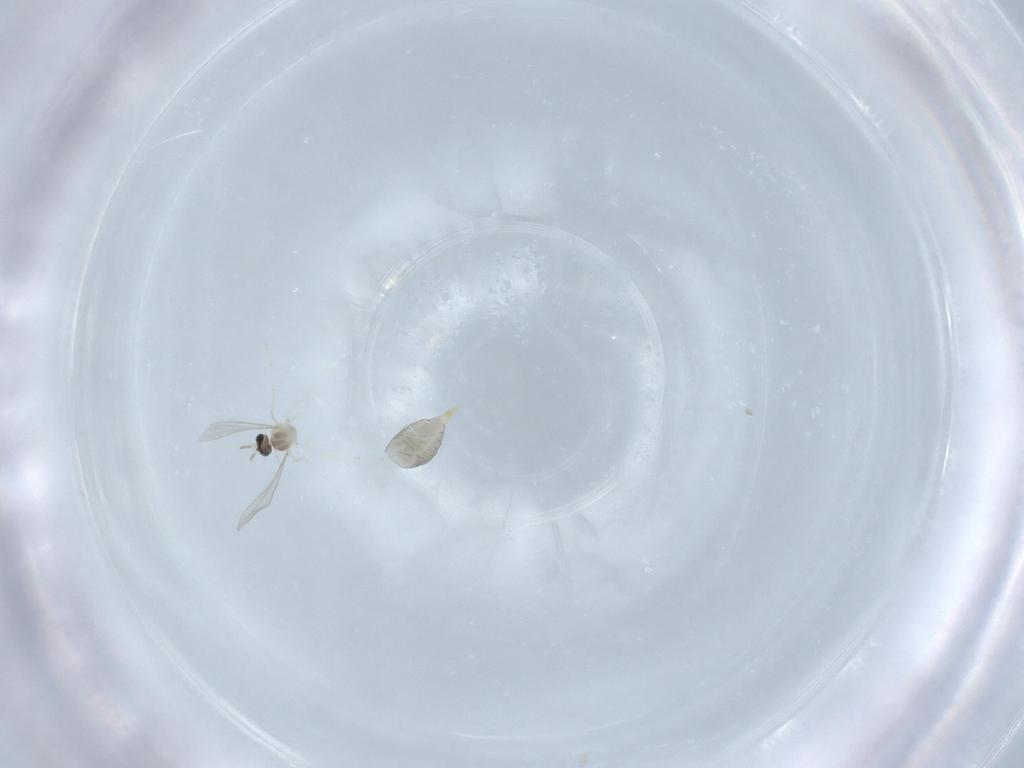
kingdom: Animalia
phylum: Arthropoda
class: Insecta
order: Diptera
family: Cecidomyiidae
